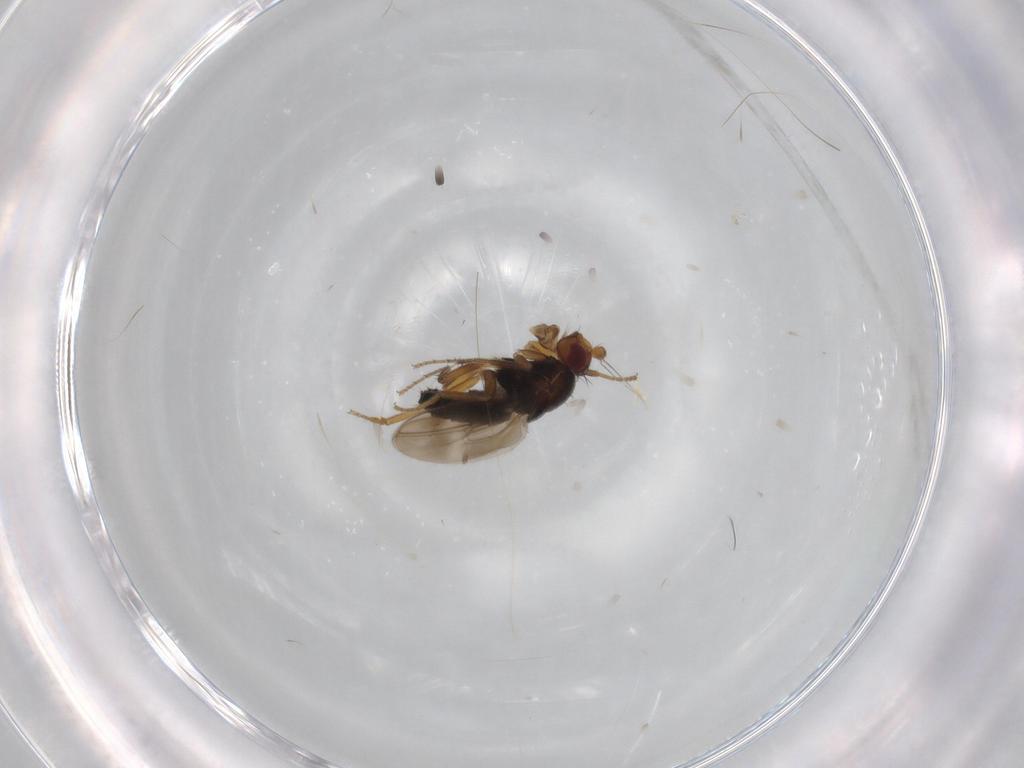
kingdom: Animalia
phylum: Arthropoda
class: Insecta
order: Diptera
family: Sphaeroceridae
